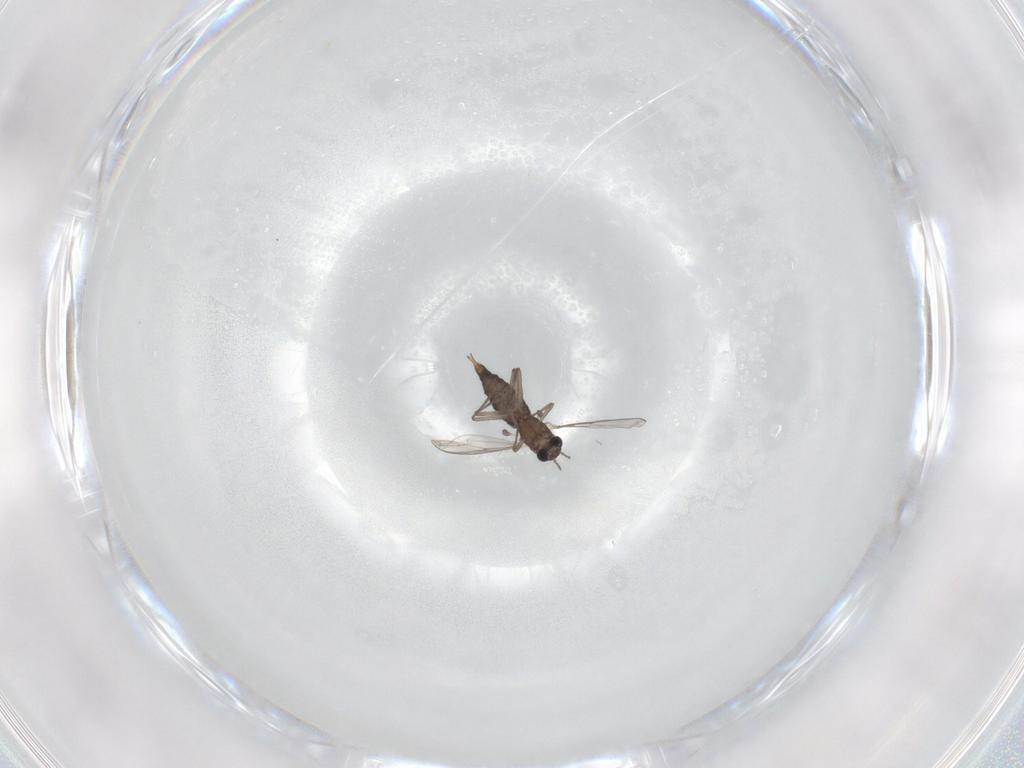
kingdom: Animalia
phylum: Arthropoda
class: Insecta
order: Diptera
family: Chironomidae
